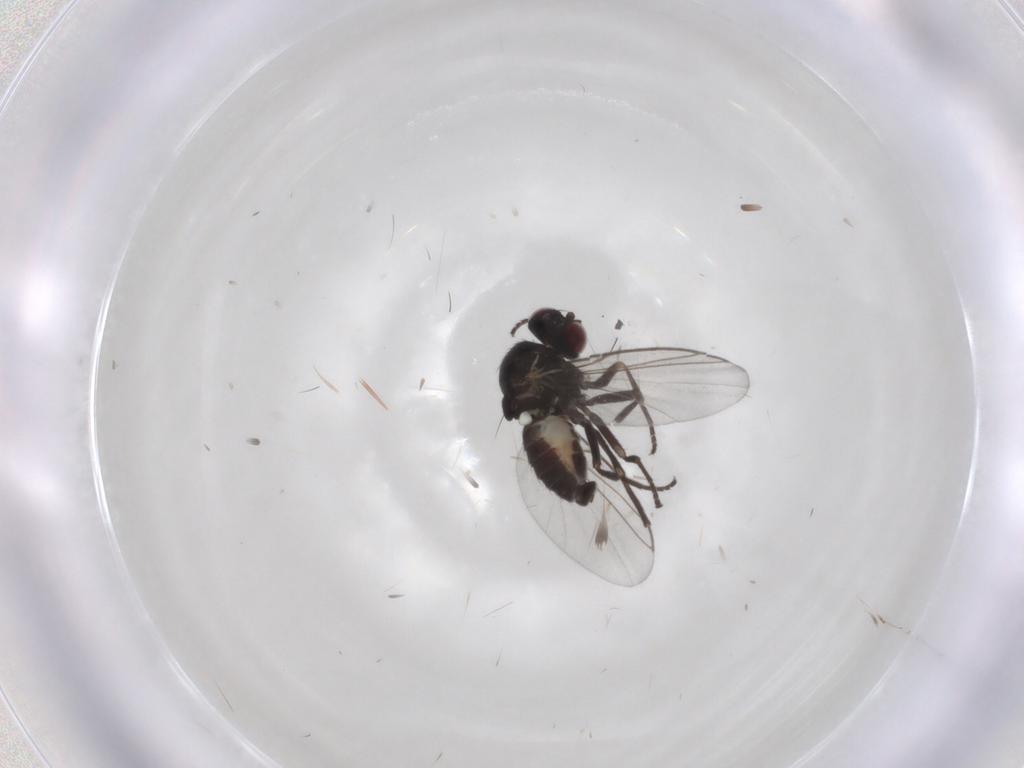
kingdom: Animalia
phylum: Arthropoda
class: Insecta
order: Diptera
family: Agromyzidae
